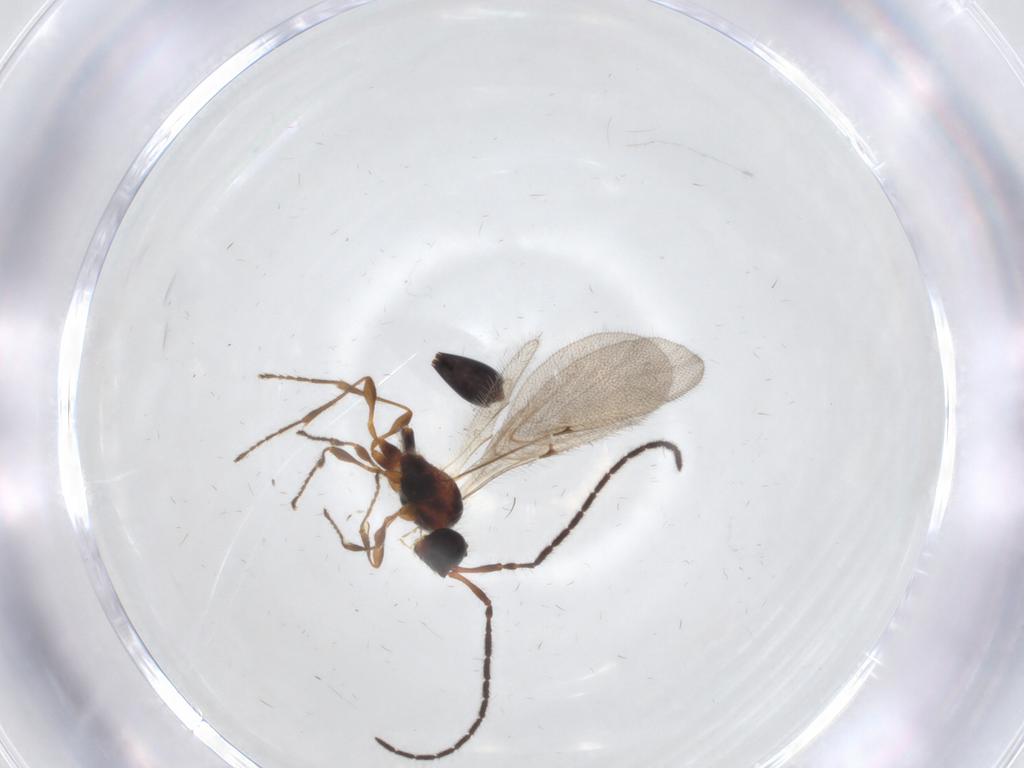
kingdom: Animalia
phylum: Arthropoda
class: Insecta
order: Hymenoptera
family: Diapriidae
